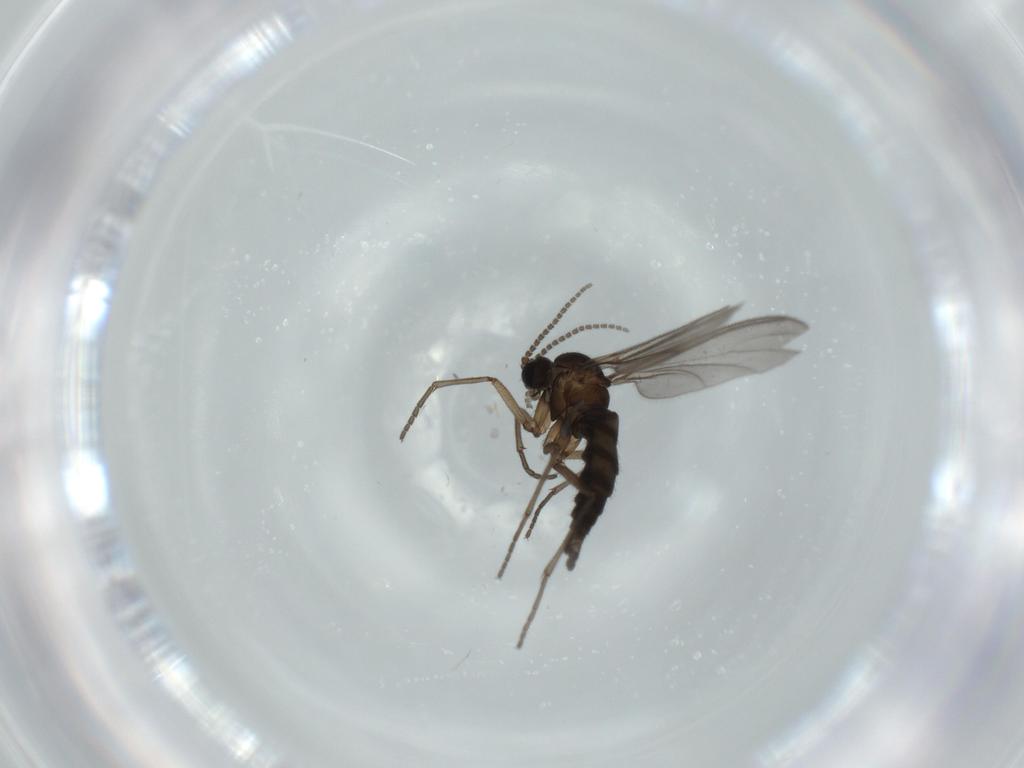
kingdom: Animalia
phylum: Arthropoda
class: Insecta
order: Diptera
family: Sciaridae
